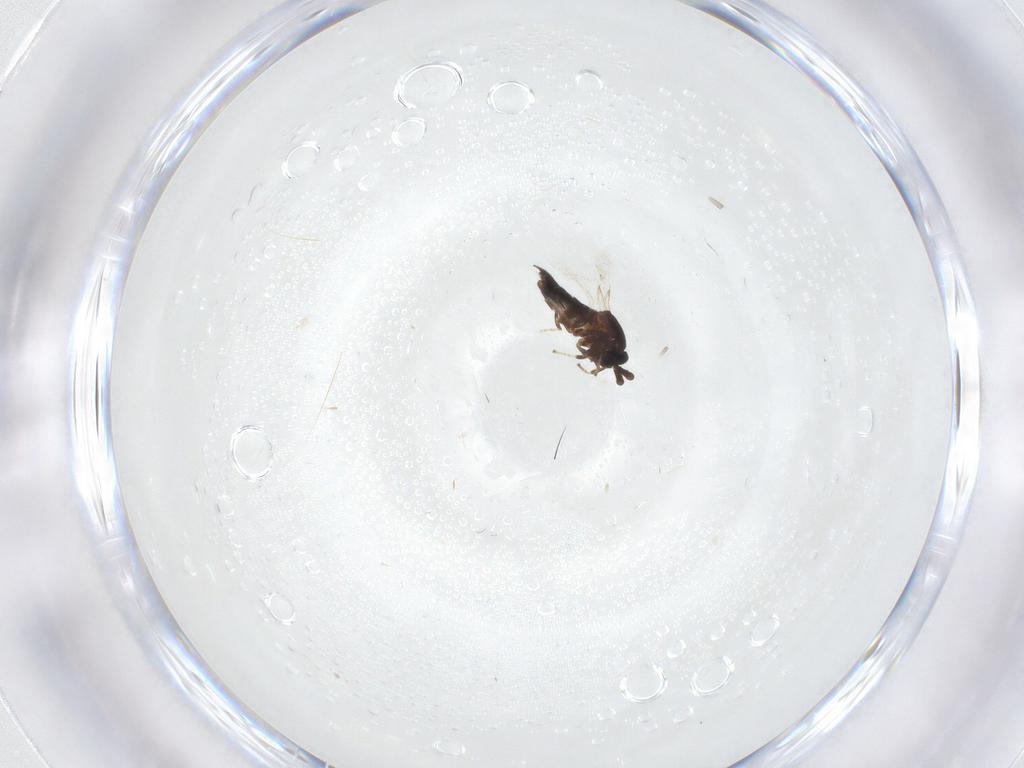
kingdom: Animalia
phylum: Arthropoda
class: Insecta
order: Diptera
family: Scatopsidae
